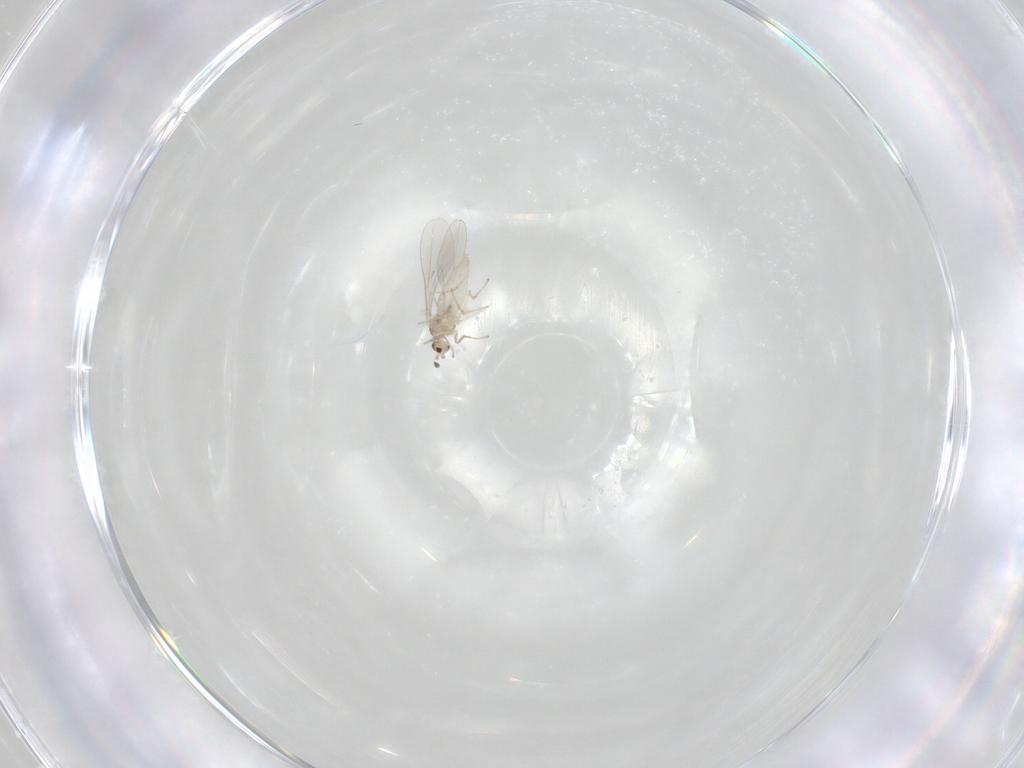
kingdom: Animalia
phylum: Arthropoda
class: Insecta
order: Diptera
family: Cecidomyiidae
